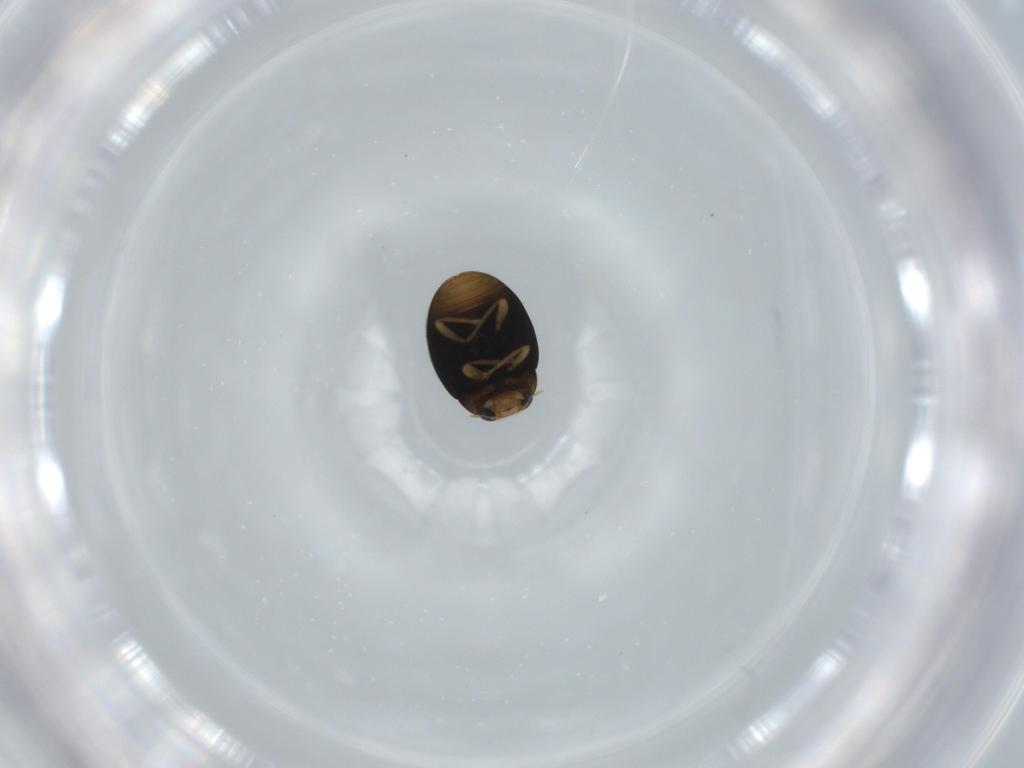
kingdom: Animalia
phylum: Arthropoda
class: Insecta
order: Coleoptera
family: Coccinellidae
